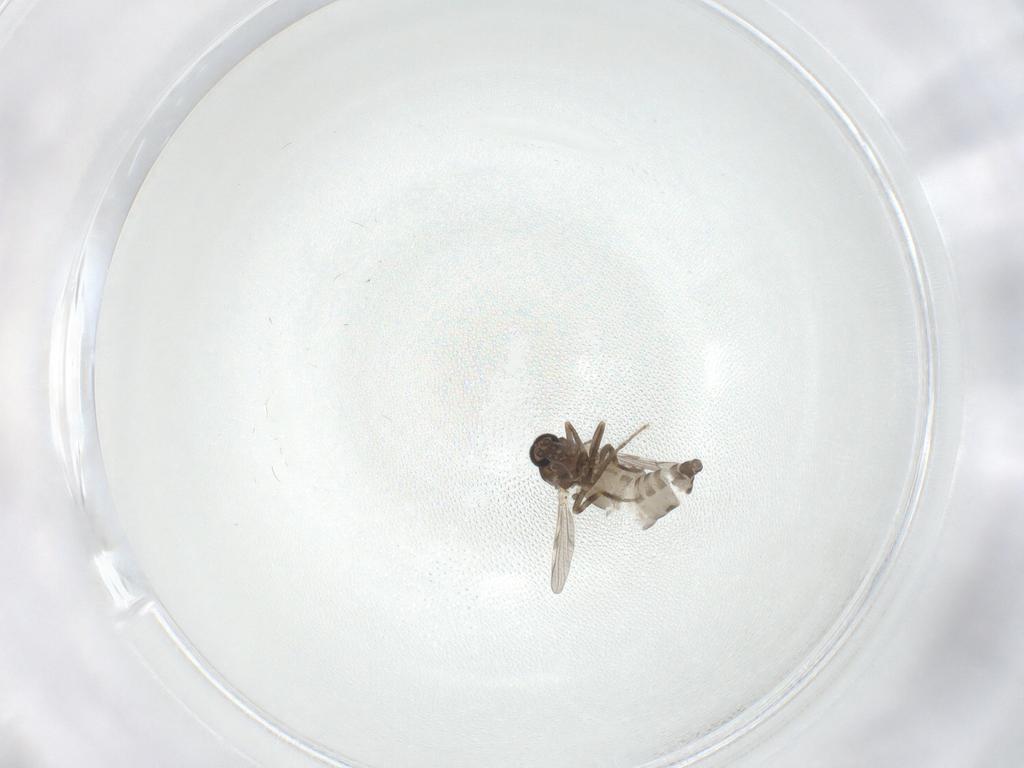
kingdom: Animalia
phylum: Arthropoda
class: Insecta
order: Diptera
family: Ceratopogonidae
